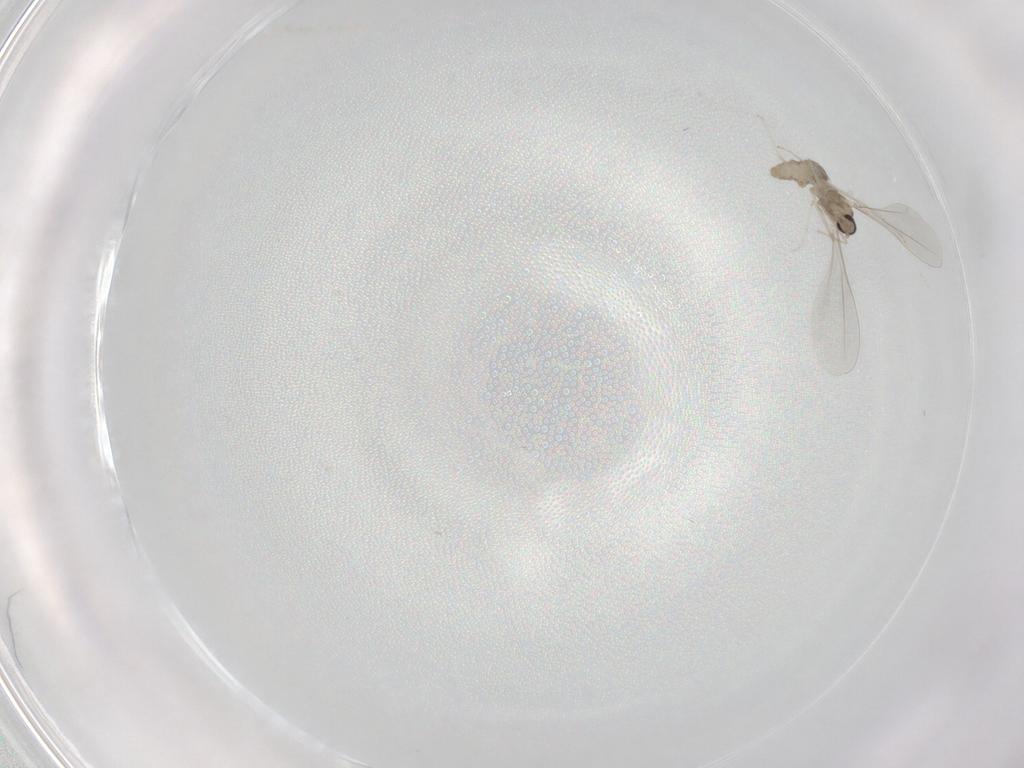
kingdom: Animalia
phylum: Arthropoda
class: Insecta
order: Diptera
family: Cecidomyiidae
